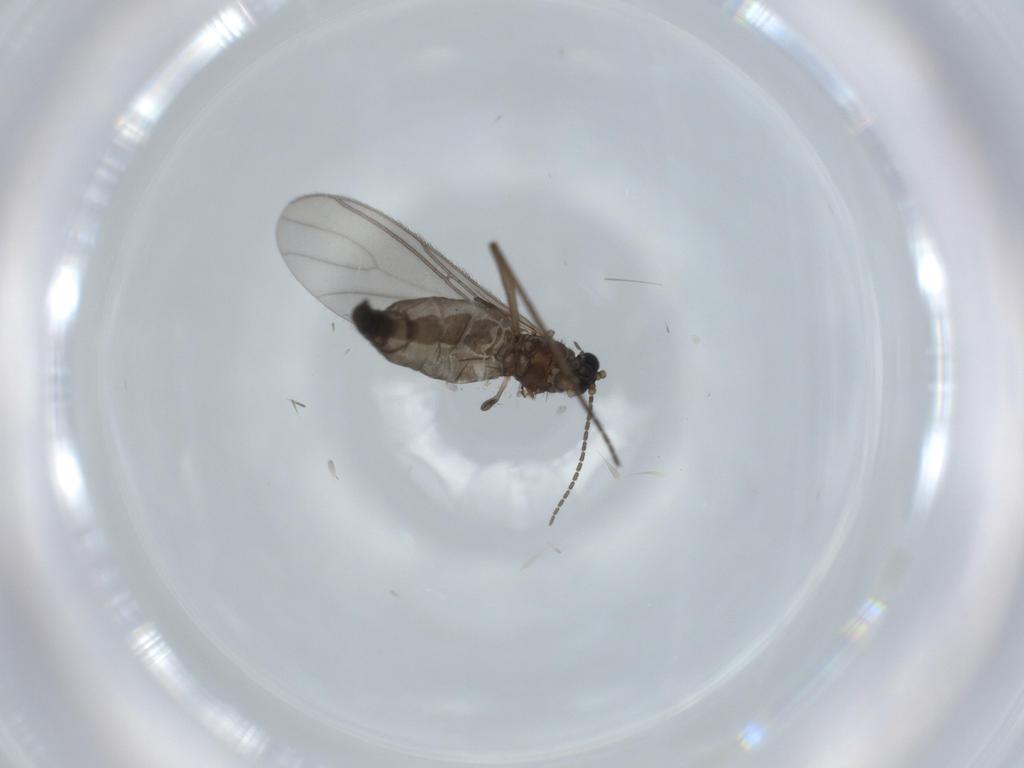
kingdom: Animalia
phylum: Arthropoda
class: Insecta
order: Diptera
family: Sciaridae
